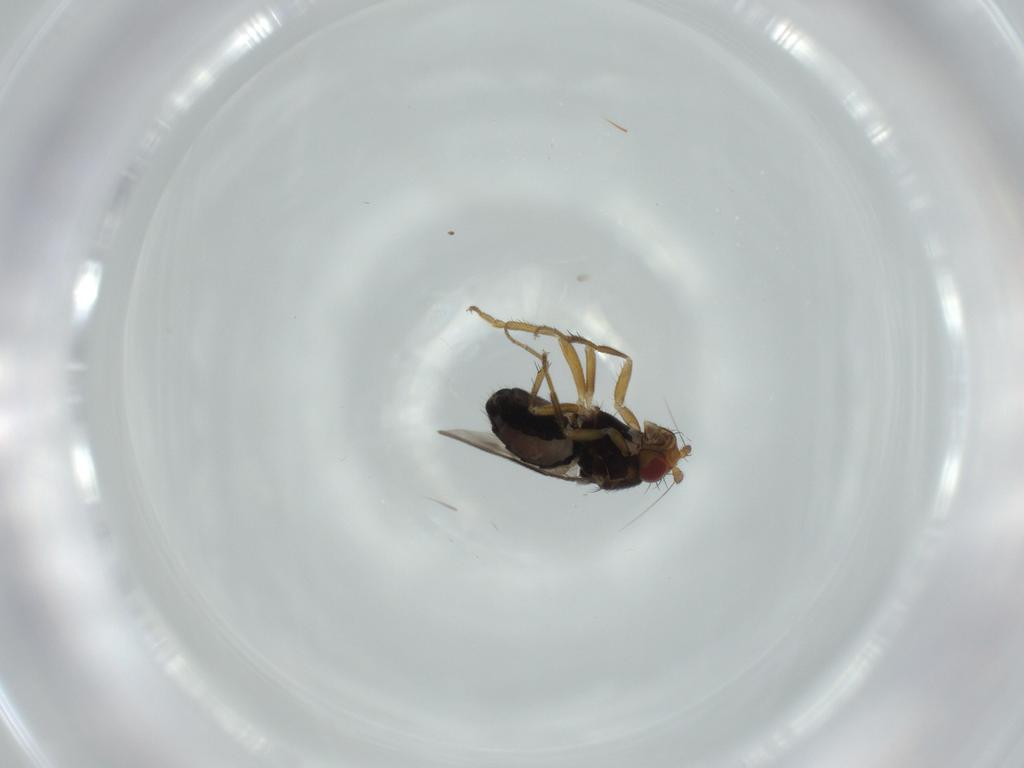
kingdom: Animalia
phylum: Arthropoda
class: Insecta
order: Diptera
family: Sphaeroceridae
